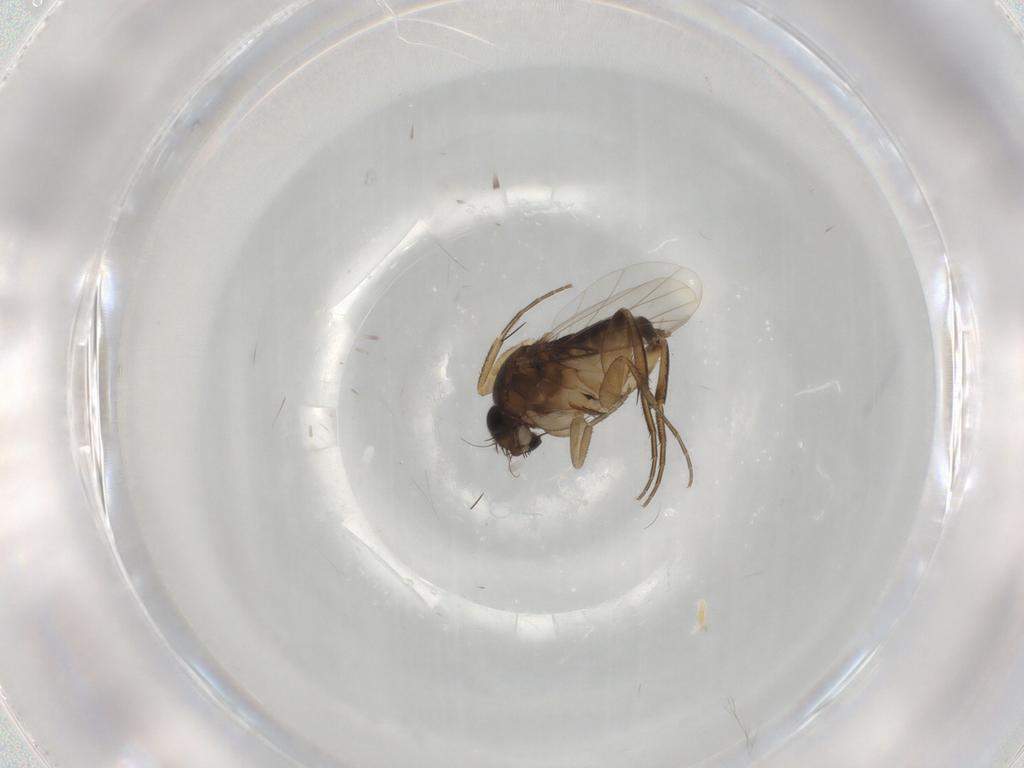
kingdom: Animalia
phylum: Arthropoda
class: Insecta
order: Diptera
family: Phoridae
